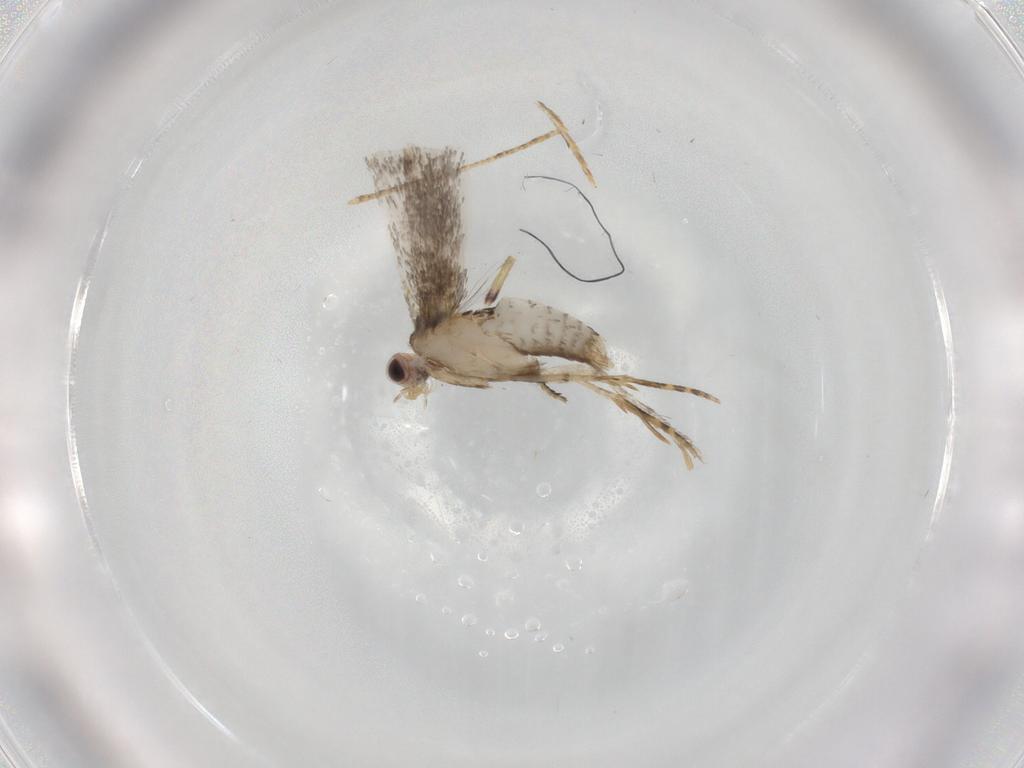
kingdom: Animalia
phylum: Arthropoda
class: Insecta
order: Lepidoptera
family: Tineidae
